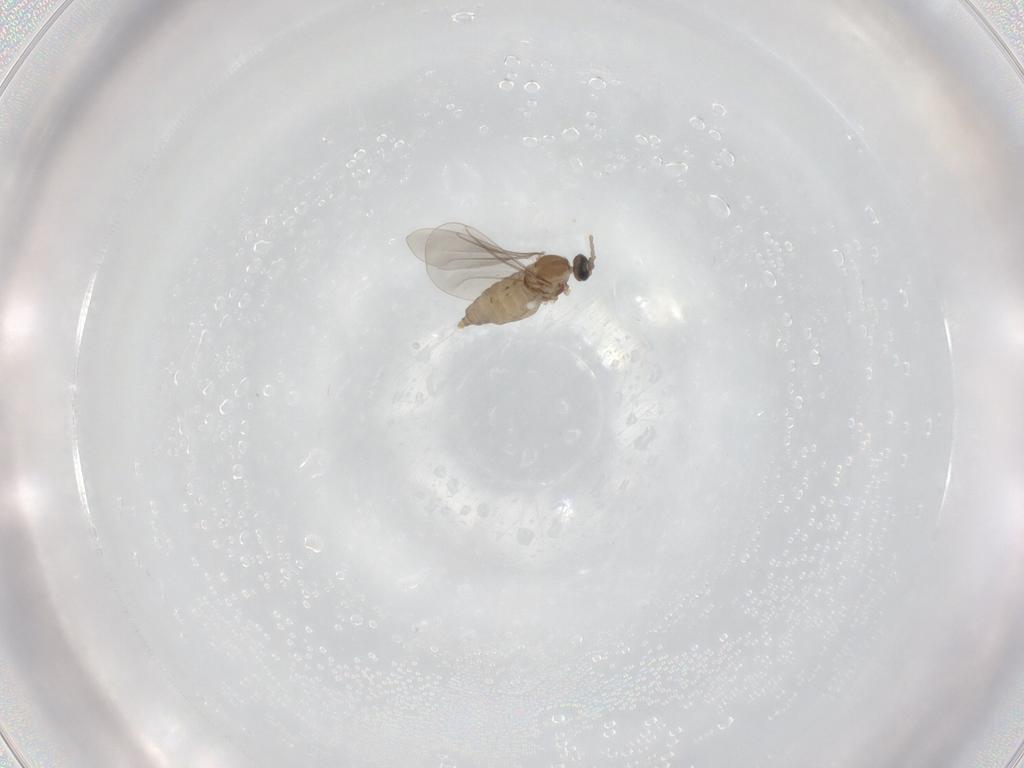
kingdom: Animalia
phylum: Arthropoda
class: Insecta
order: Diptera
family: Cecidomyiidae
